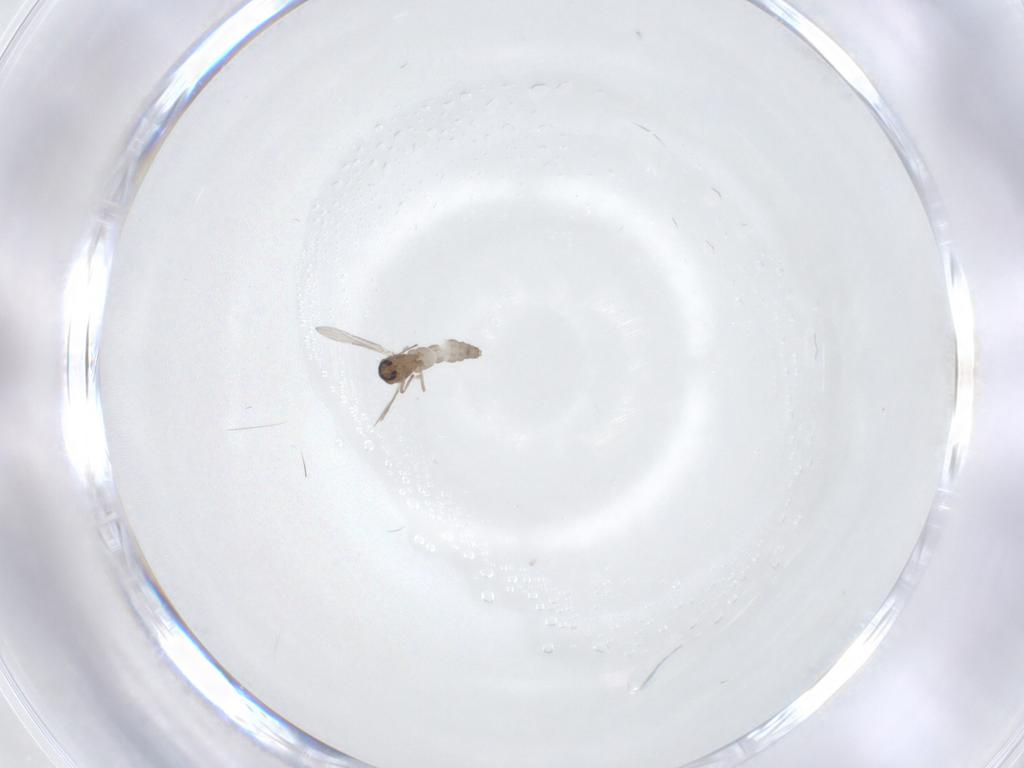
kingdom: Animalia
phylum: Arthropoda
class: Insecta
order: Diptera
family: Ceratopogonidae
